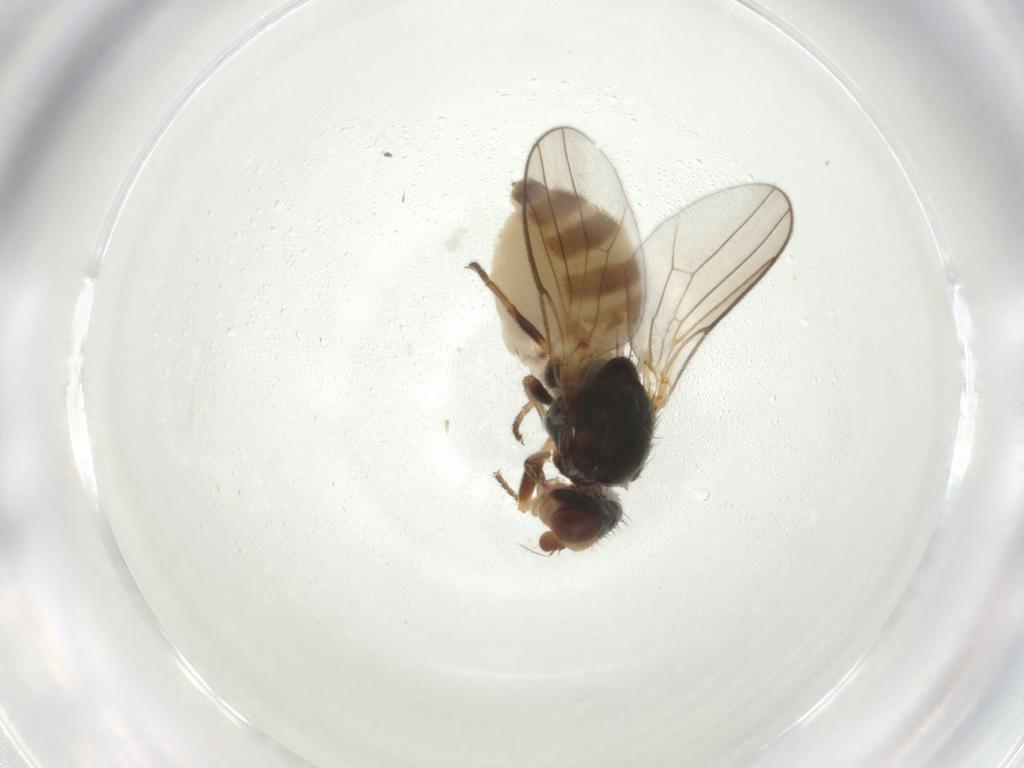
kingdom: Animalia
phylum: Arthropoda
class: Insecta
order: Diptera
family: Chloropidae
